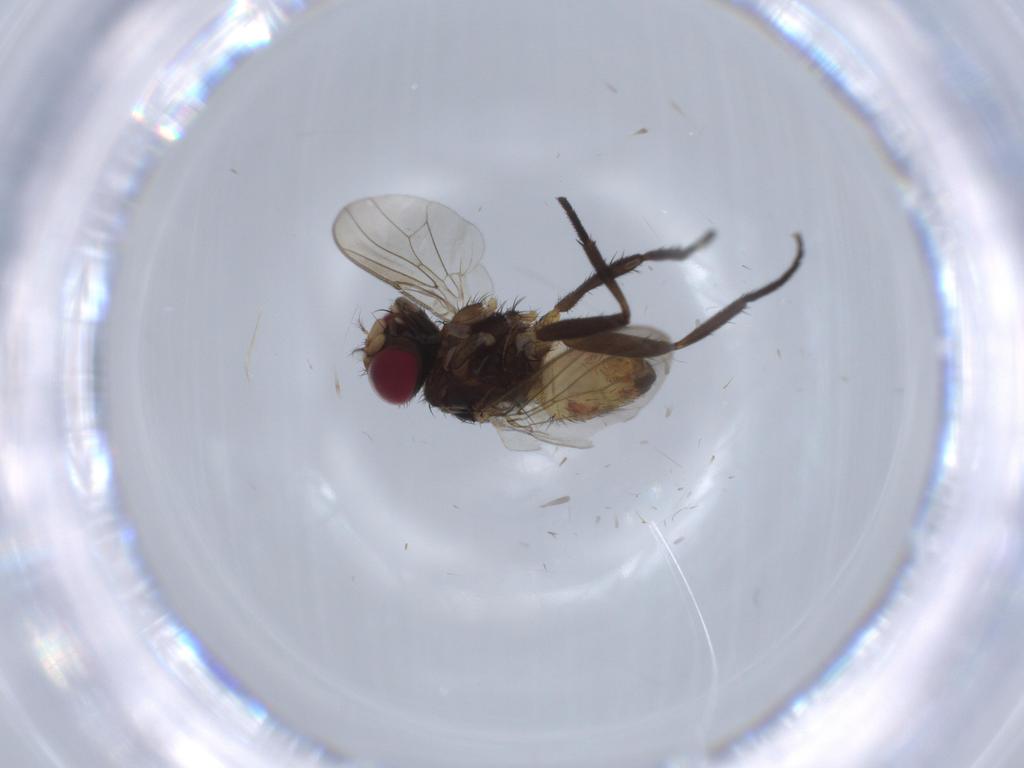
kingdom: Animalia
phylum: Arthropoda
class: Insecta
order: Diptera
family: Anthomyiidae
